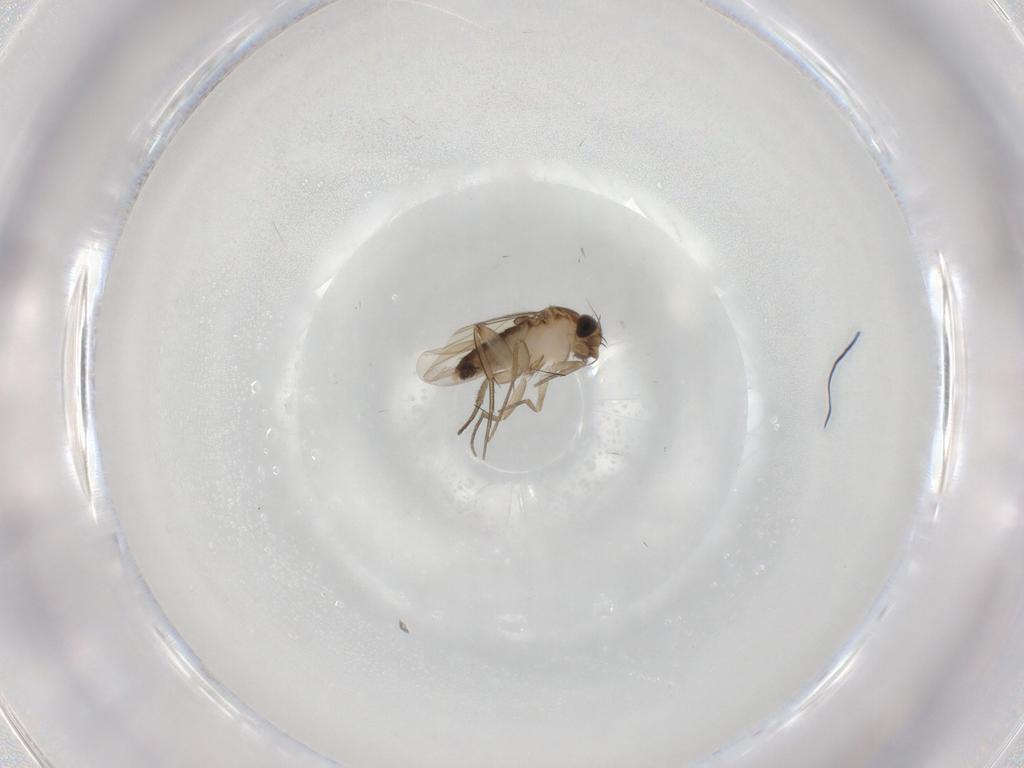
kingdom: Animalia
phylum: Arthropoda
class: Insecta
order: Diptera
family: Phoridae
